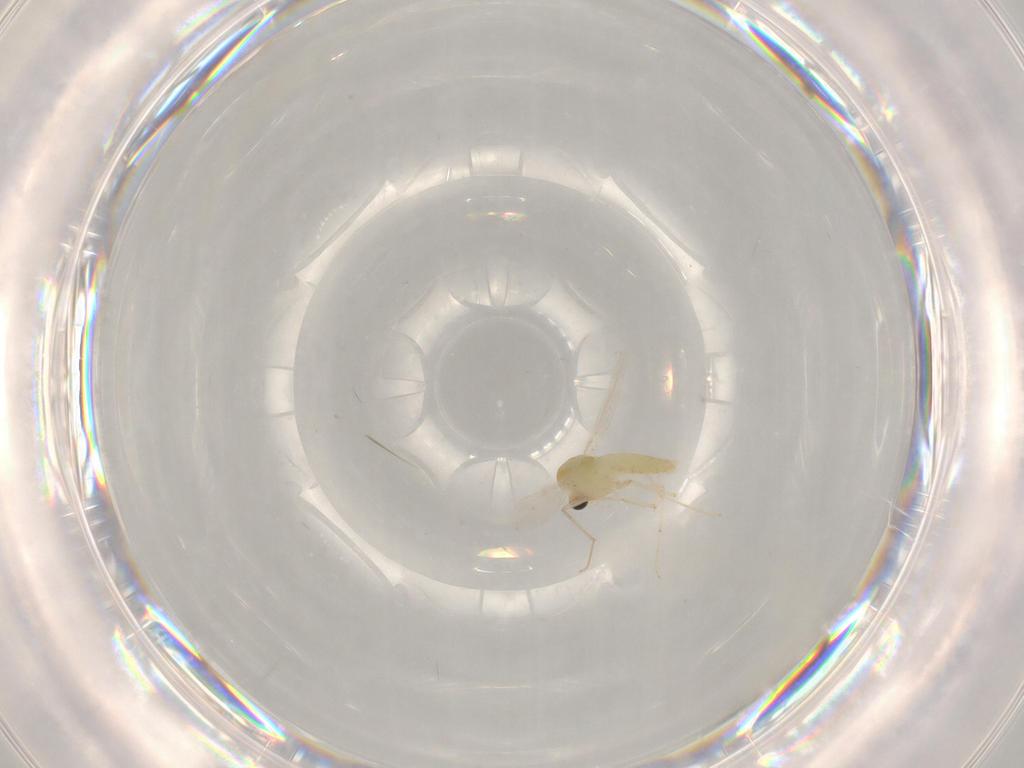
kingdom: Animalia
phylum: Arthropoda
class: Insecta
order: Diptera
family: Chironomidae
